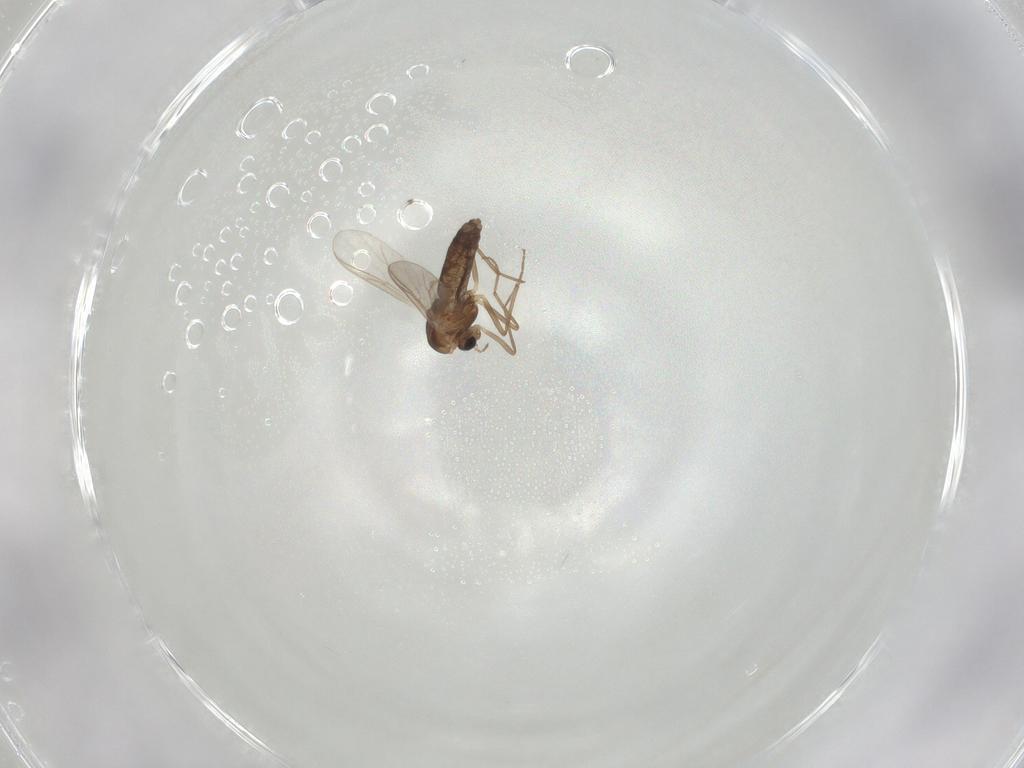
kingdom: Animalia
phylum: Arthropoda
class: Insecta
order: Diptera
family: Chironomidae
